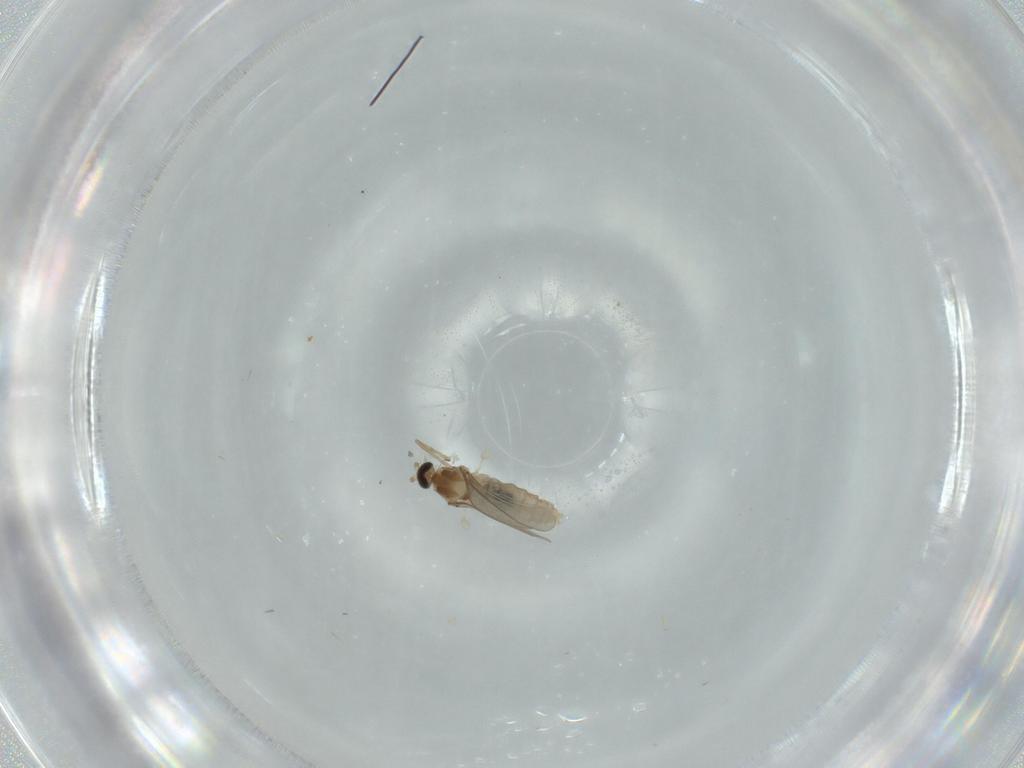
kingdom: Animalia
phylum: Arthropoda
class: Insecta
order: Diptera
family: Cecidomyiidae
